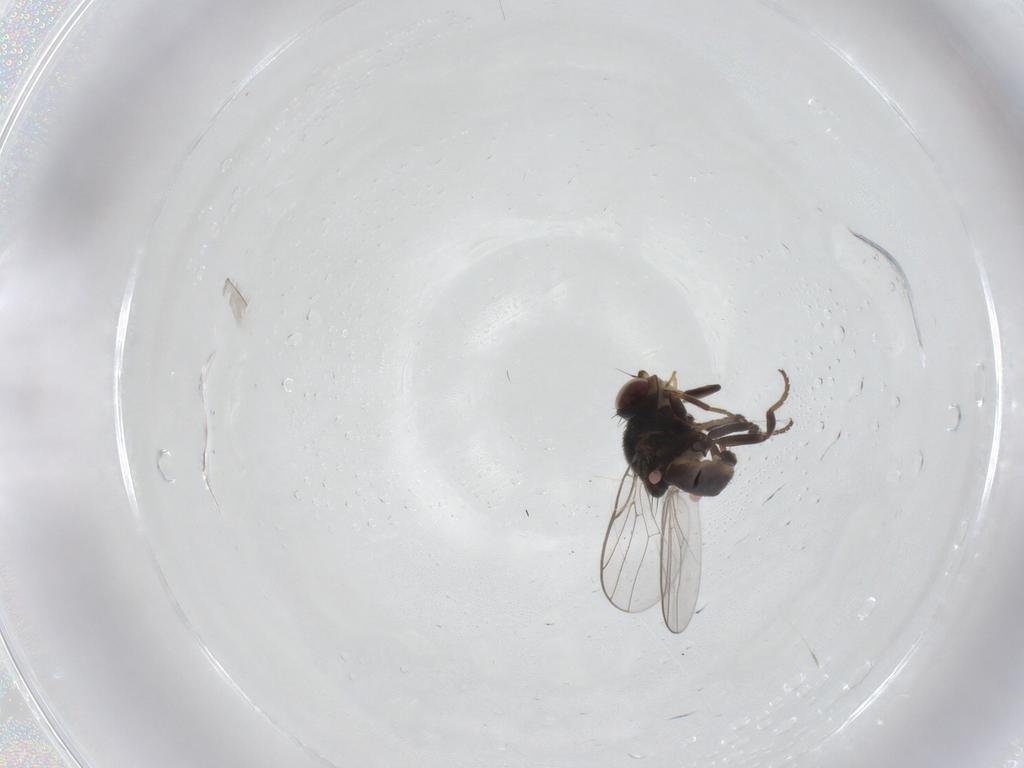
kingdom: Animalia
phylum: Arthropoda
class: Insecta
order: Diptera
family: Chloropidae
